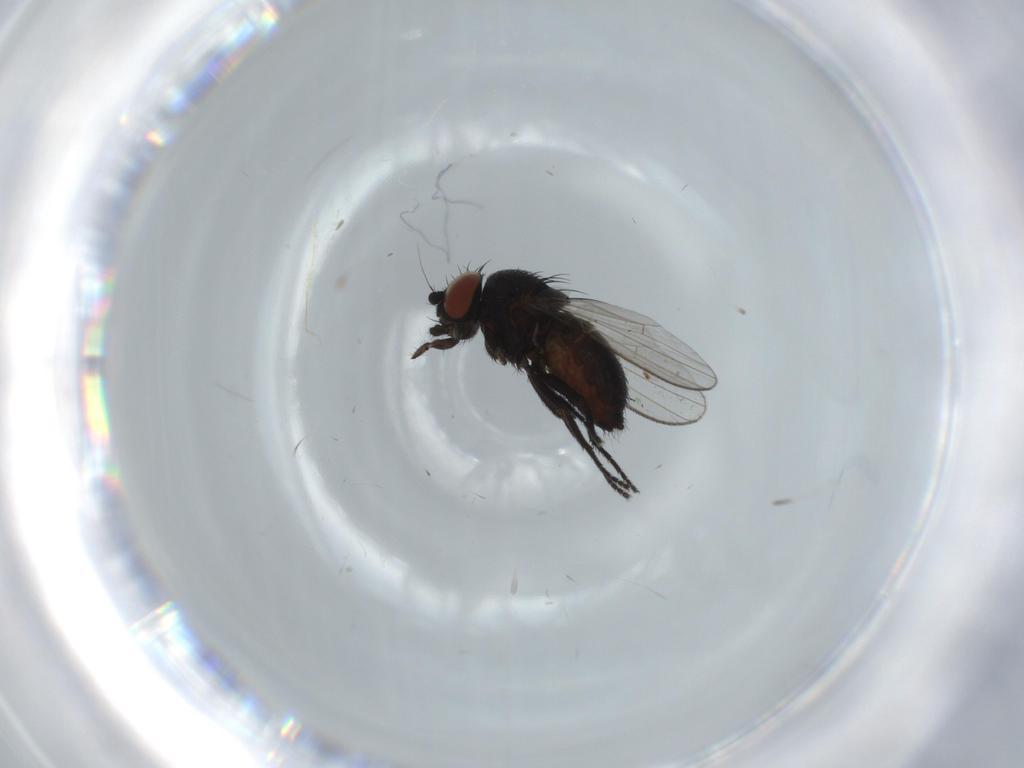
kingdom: Animalia
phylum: Arthropoda
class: Insecta
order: Diptera
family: Milichiidae
